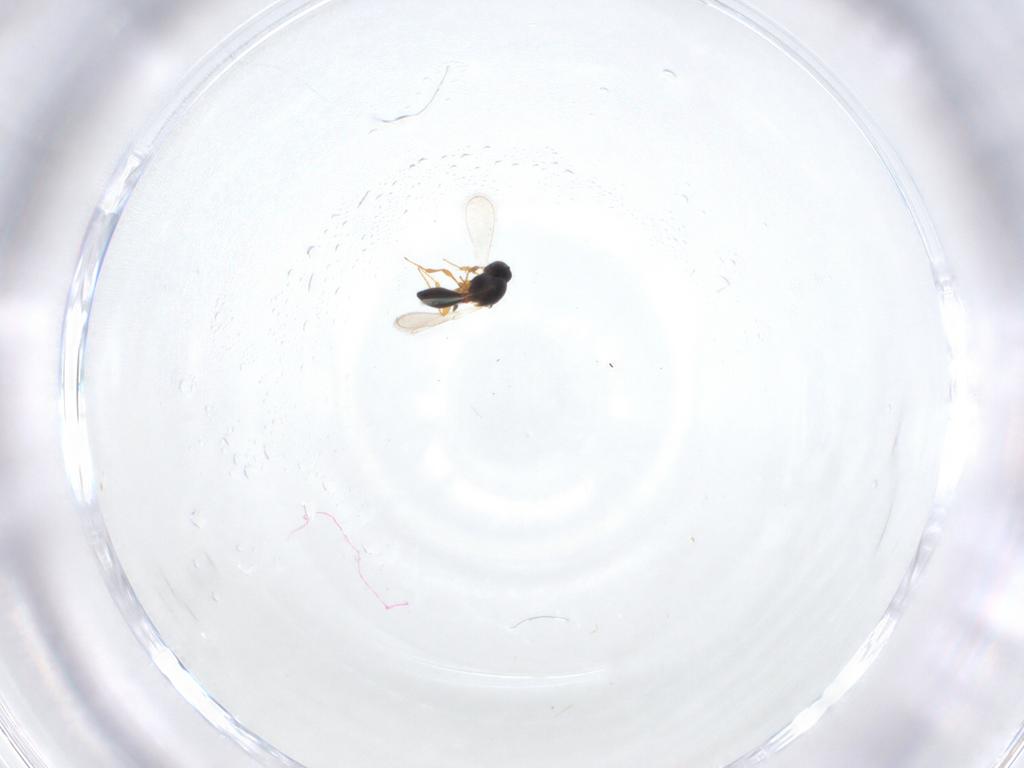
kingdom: Animalia
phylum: Arthropoda
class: Insecta
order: Hymenoptera
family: Platygastridae
